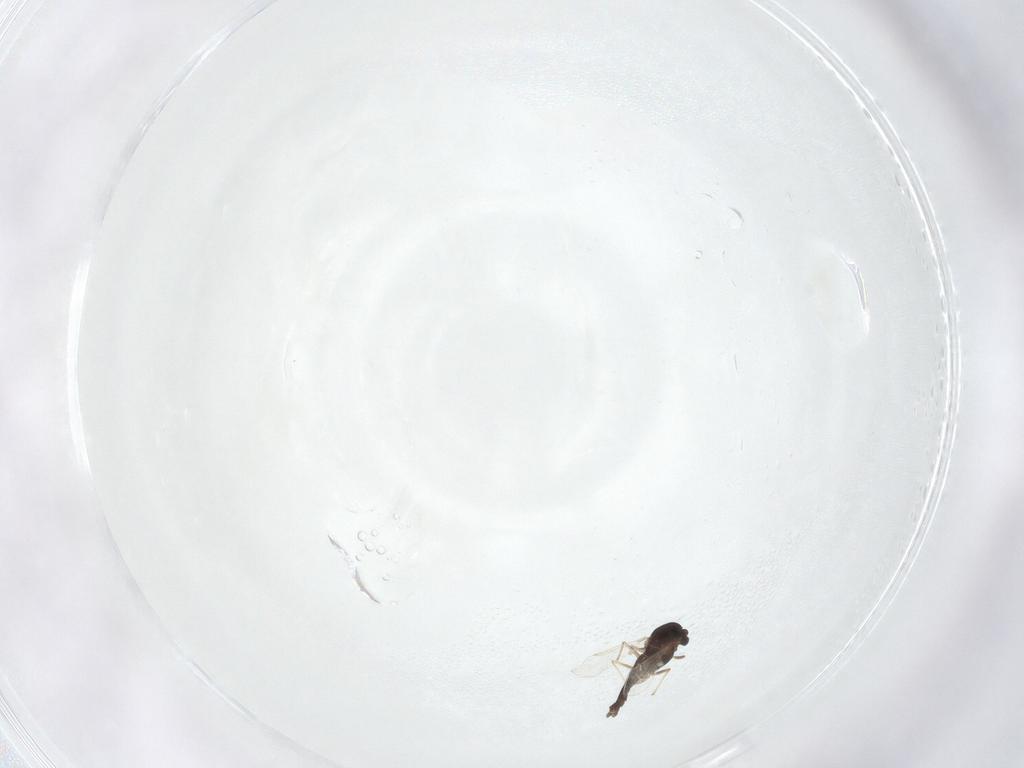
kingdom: Animalia
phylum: Arthropoda
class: Insecta
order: Diptera
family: Chironomidae
